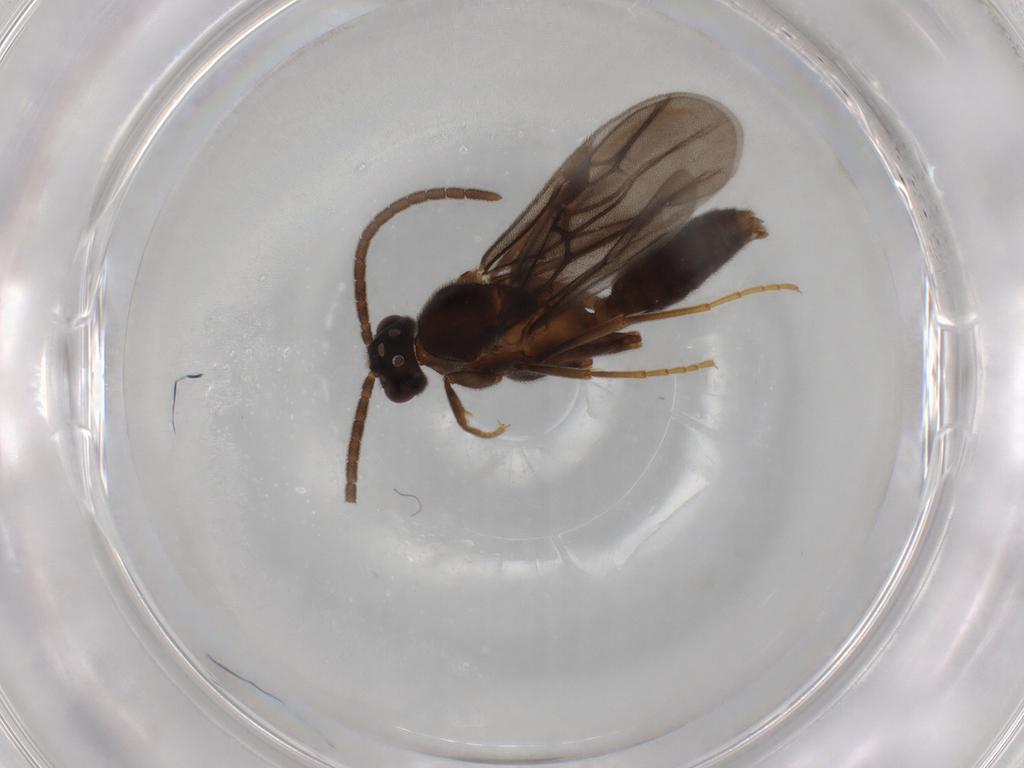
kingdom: Animalia
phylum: Arthropoda
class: Insecta
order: Hymenoptera
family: Formicidae
